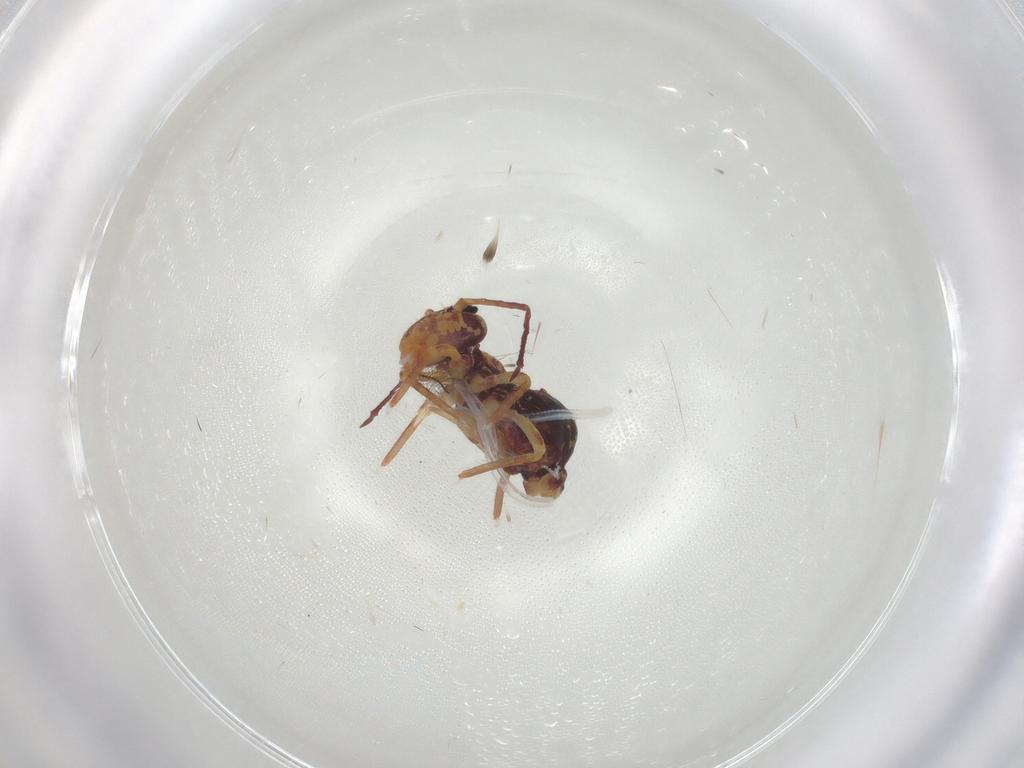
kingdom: Animalia
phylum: Arthropoda
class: Collembola
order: Symphypleona
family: Dicyrtomidae
